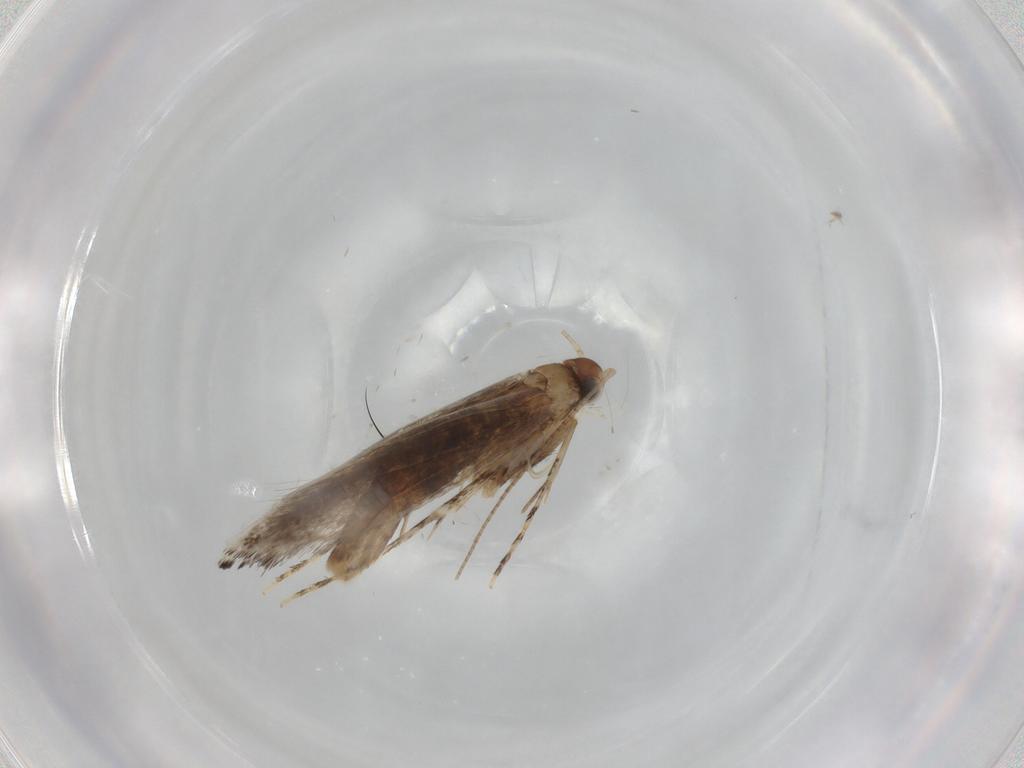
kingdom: Animalia
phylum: Arthropoda
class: Insecta
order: Lepidoptera
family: Gracillariidae
